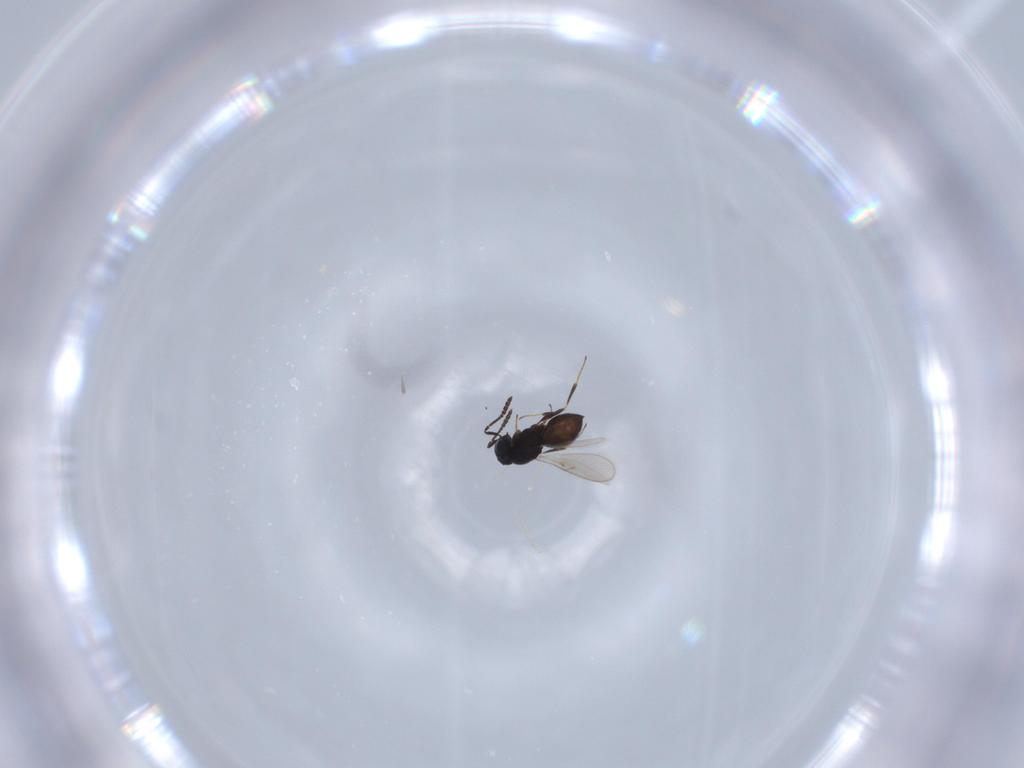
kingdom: Animalia
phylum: Arthropoda
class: Insecta
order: Hymenoptera
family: Scelionidae
